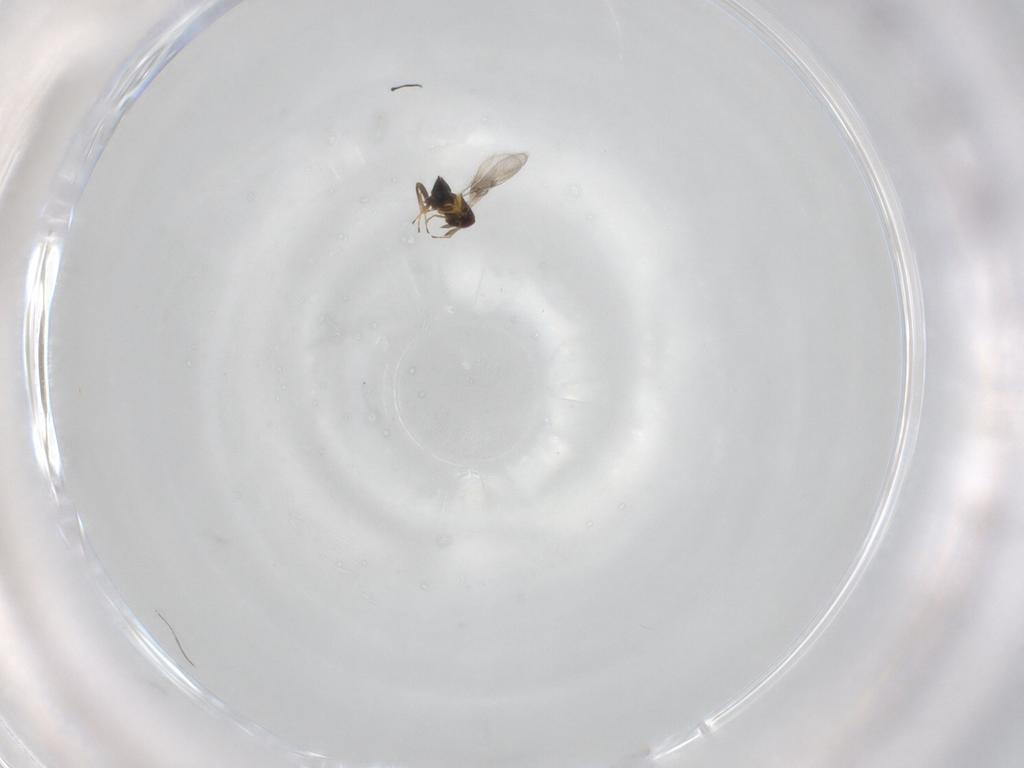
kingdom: Animalia
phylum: Arthropoda
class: Insecta
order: Hymenoptera
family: Trichogrammatidae
